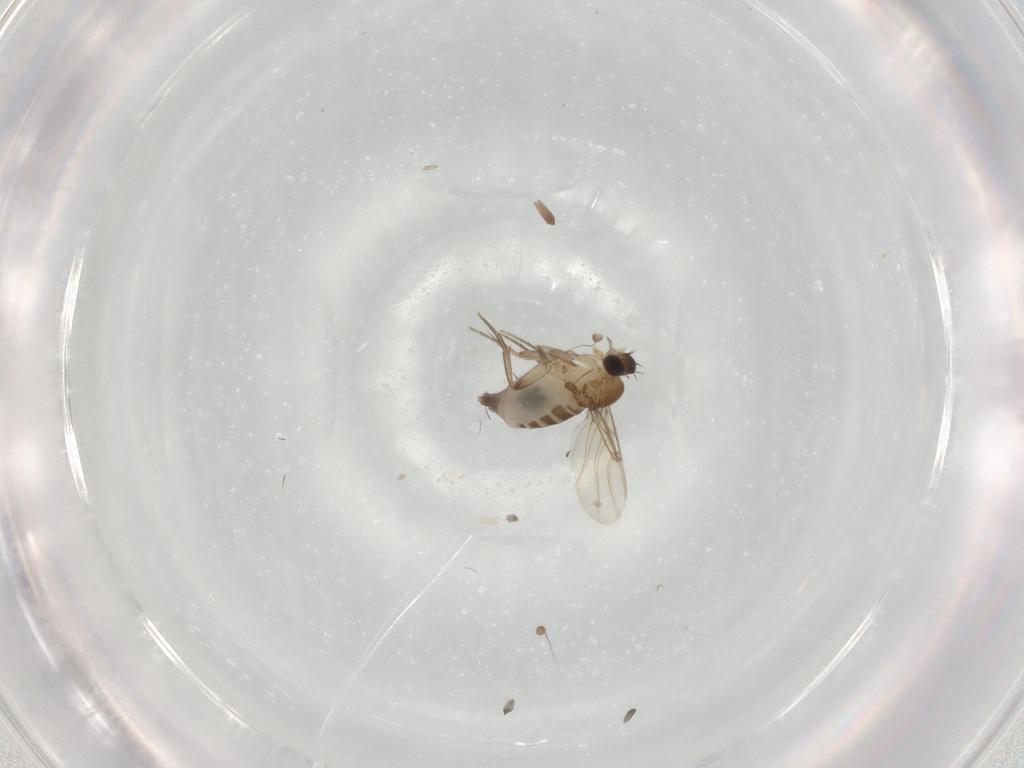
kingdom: Animalia
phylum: Arthropoda
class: Insecta
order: Diptera
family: Phoridae
